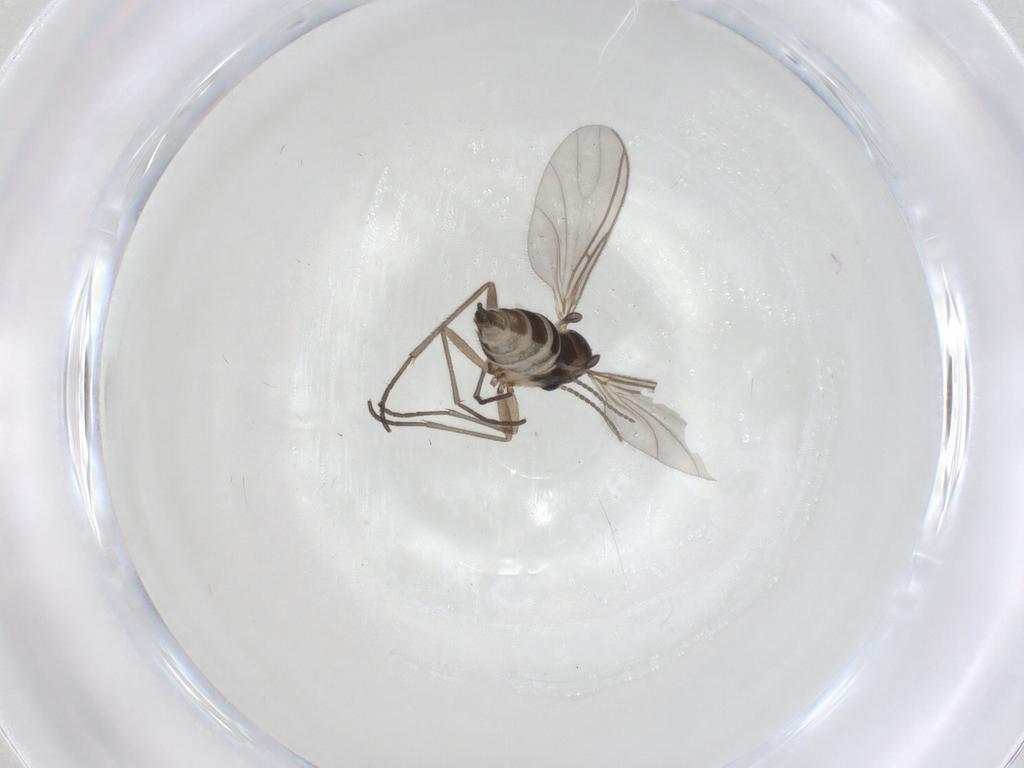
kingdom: Animalia
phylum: Arthropoda
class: Insecta
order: Diptera
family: Sciaridae
